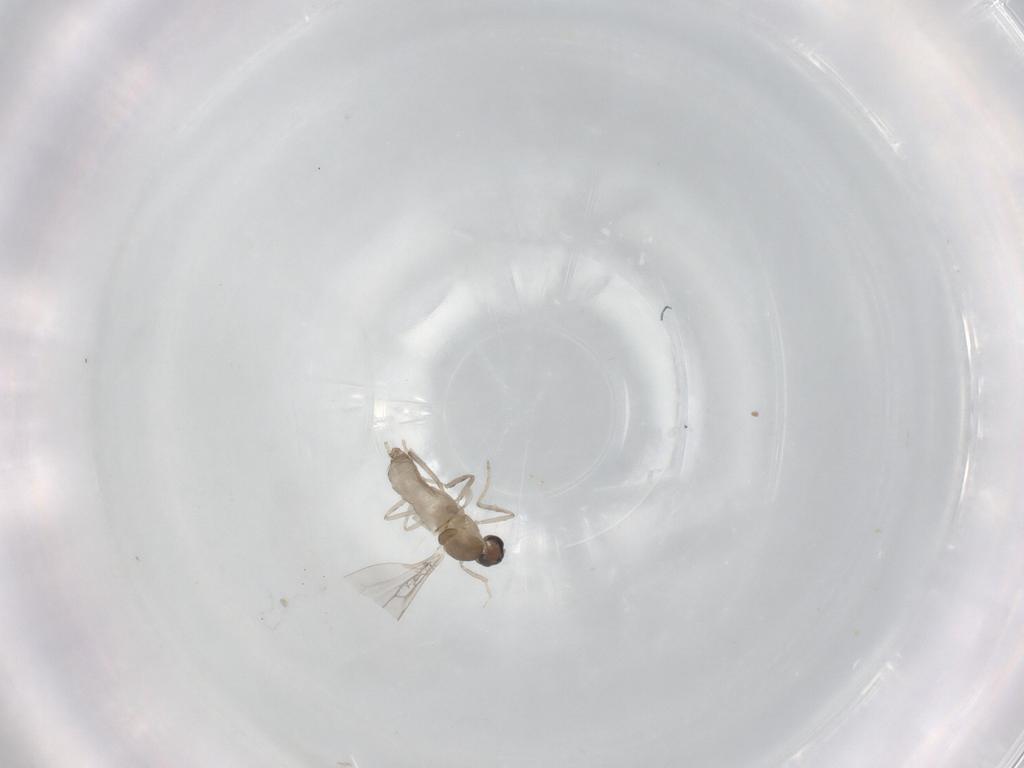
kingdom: Animalia
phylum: Arthropoda
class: Insecta
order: Diptera
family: Cecidomyiidae
